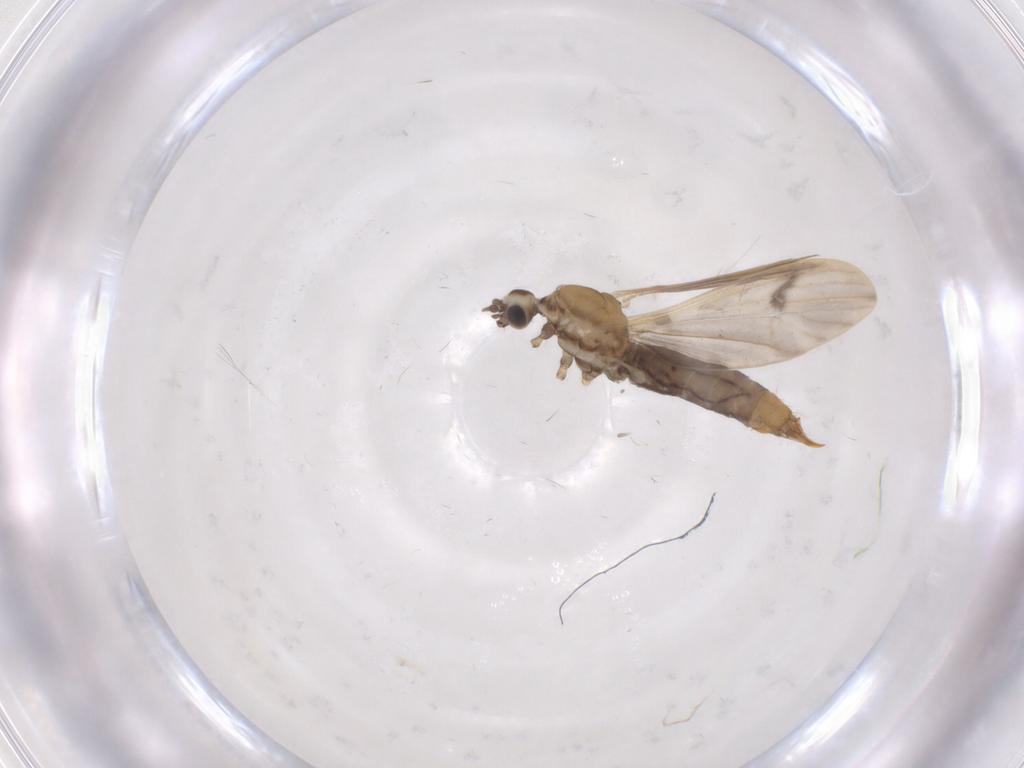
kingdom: Animalia
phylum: Arthropoda
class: Insecta
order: Diptera
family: Limoniidae
